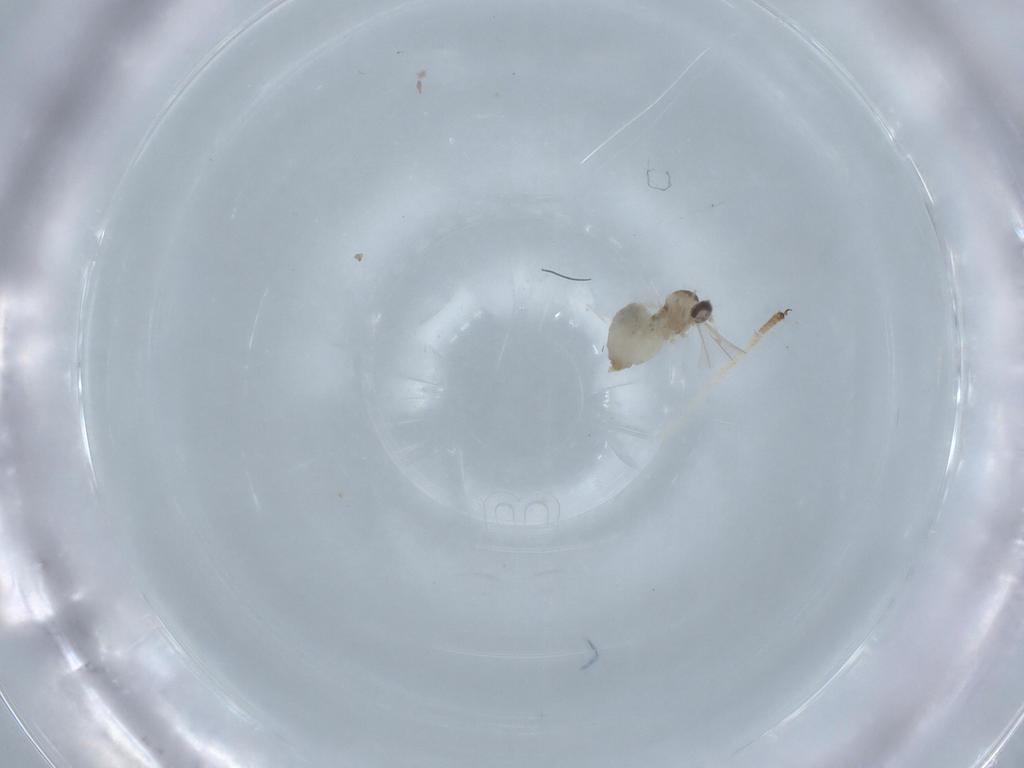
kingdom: Animalia
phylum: Arthropoda
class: Insecta
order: Diptera
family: Cecidomyiidae
